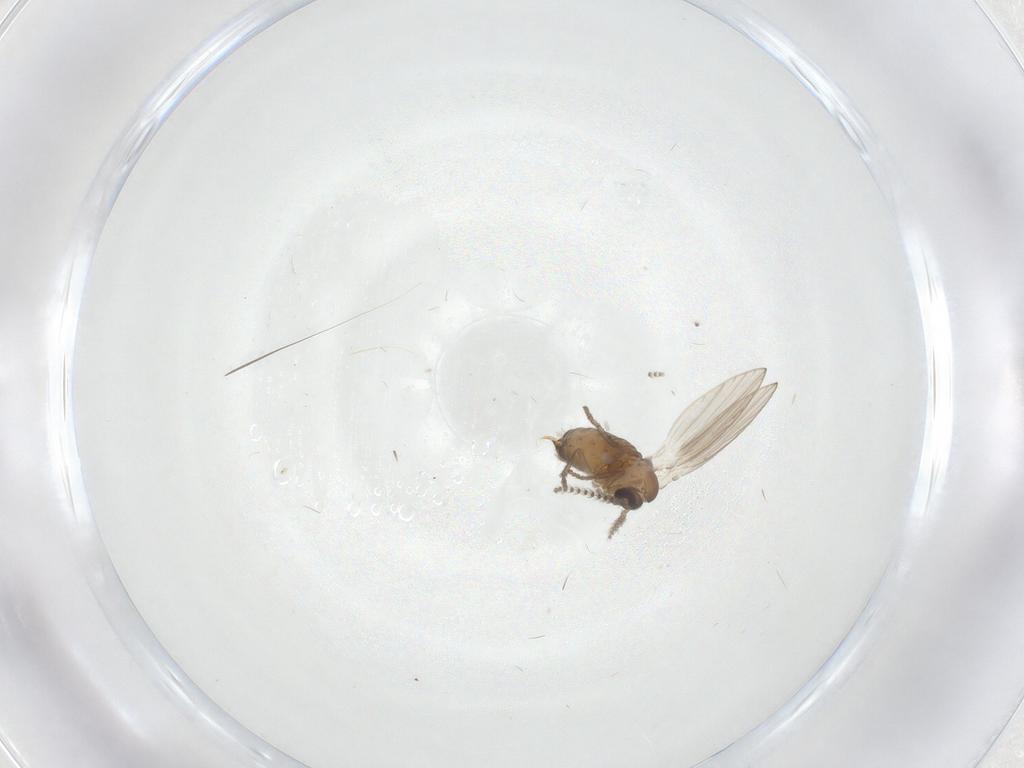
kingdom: Animalia
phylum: Arthropoda
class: Insecta
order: Diptera
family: Psychodidae
